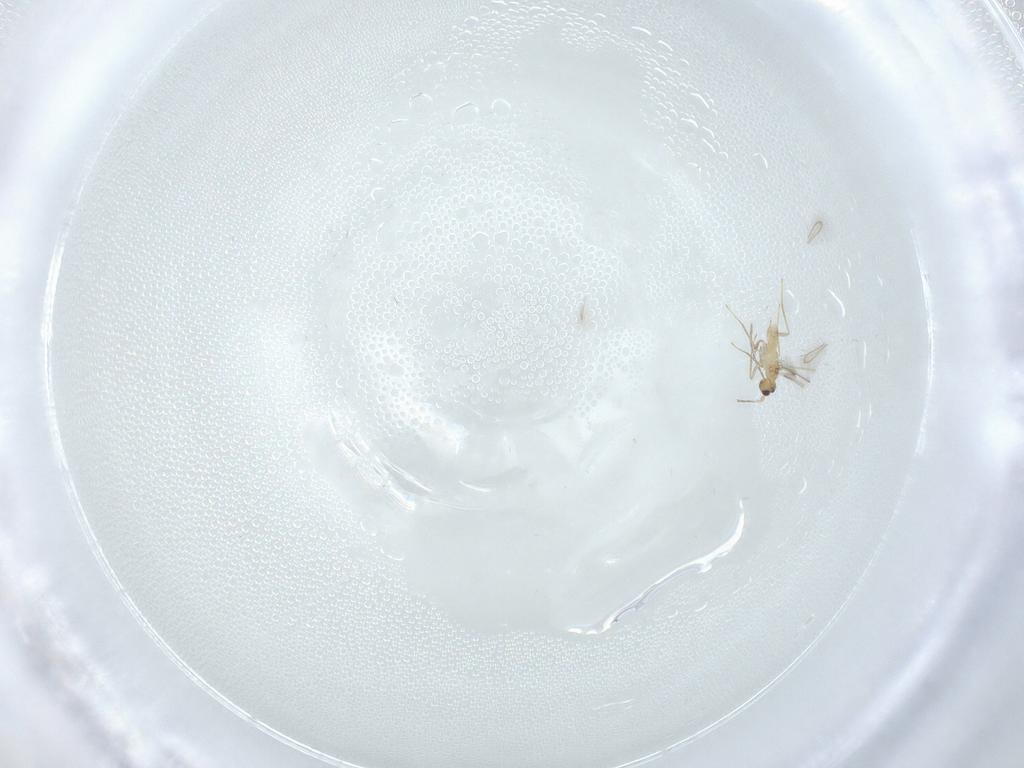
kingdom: Animalia
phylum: Arthropoda
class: Insecta
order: Hymenoptera
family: Mymaridae
